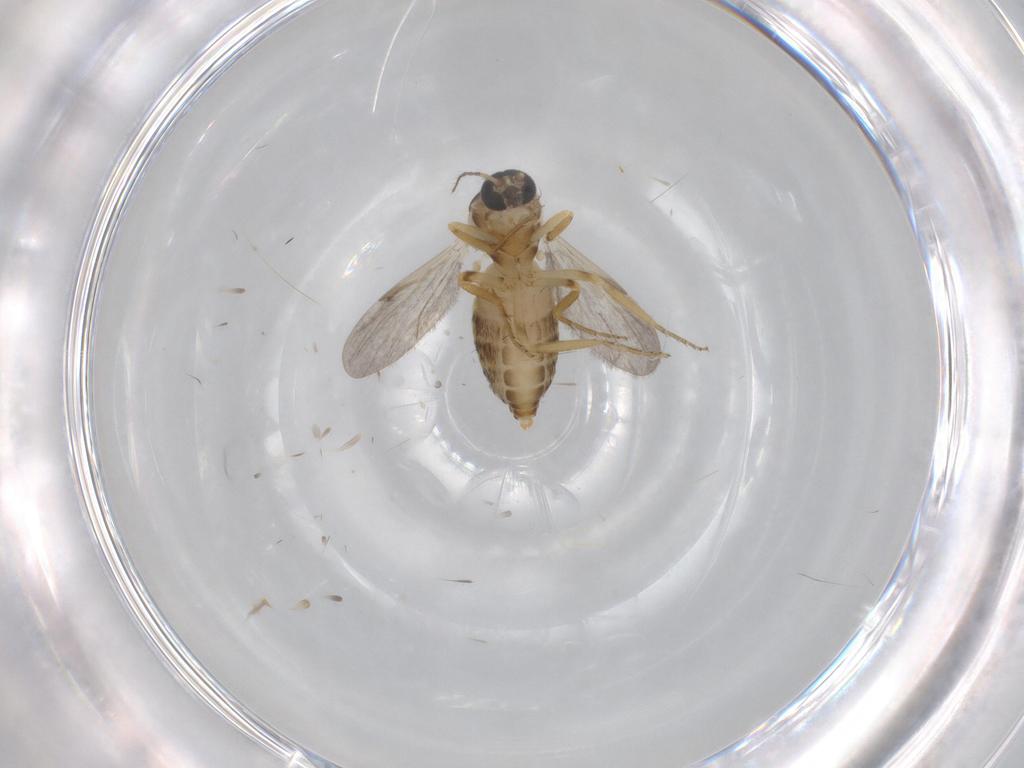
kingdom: Animalia
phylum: Arthropoda
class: Insecta
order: Diptera
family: Ceratopogonidae
